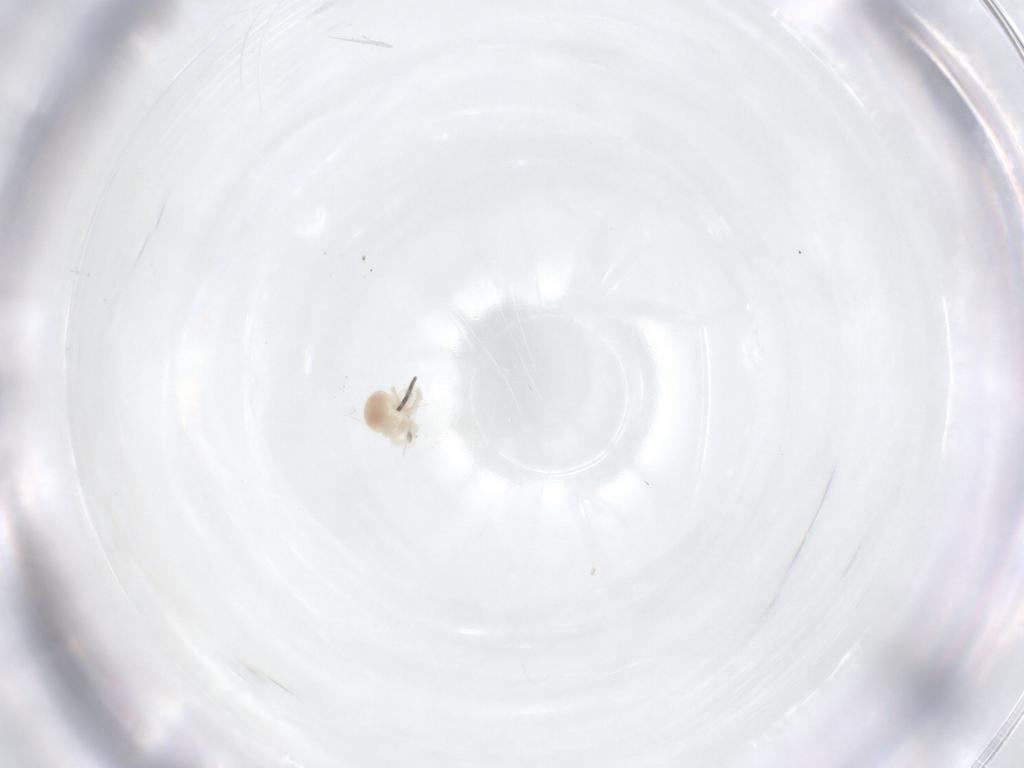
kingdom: Animalia
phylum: Arthropoda
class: Arachnida
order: Trombidiformes
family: Anystidae
